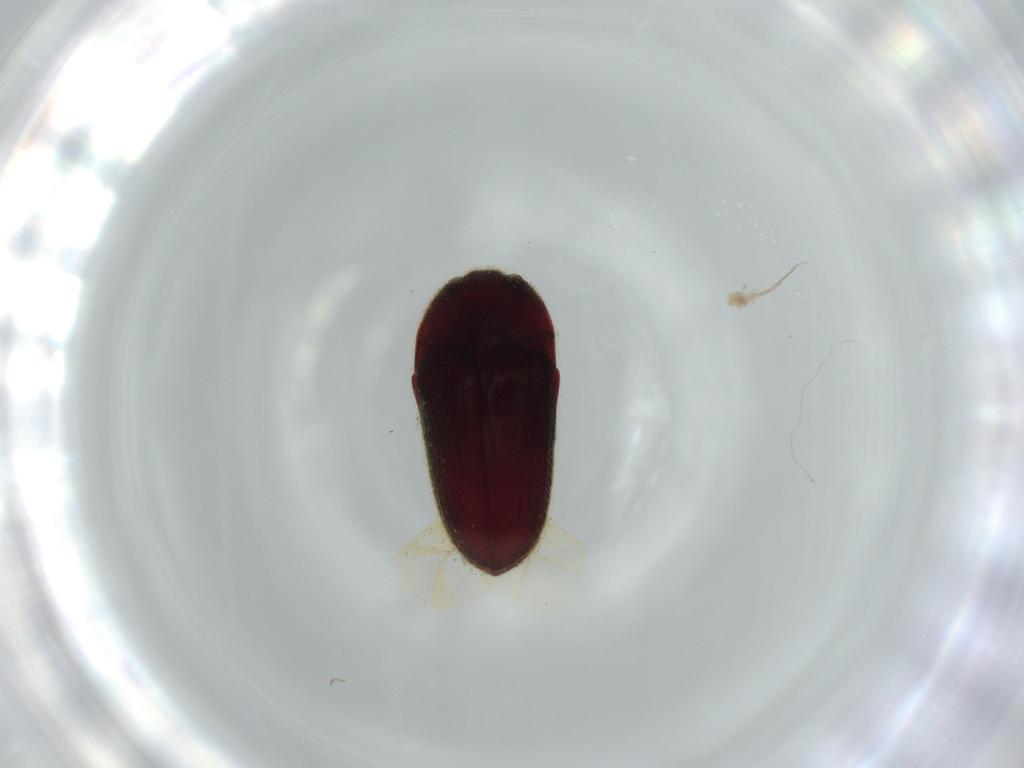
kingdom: Animalia
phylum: Arthropoda
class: Insecta
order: Coleoptera
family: Throscidae
